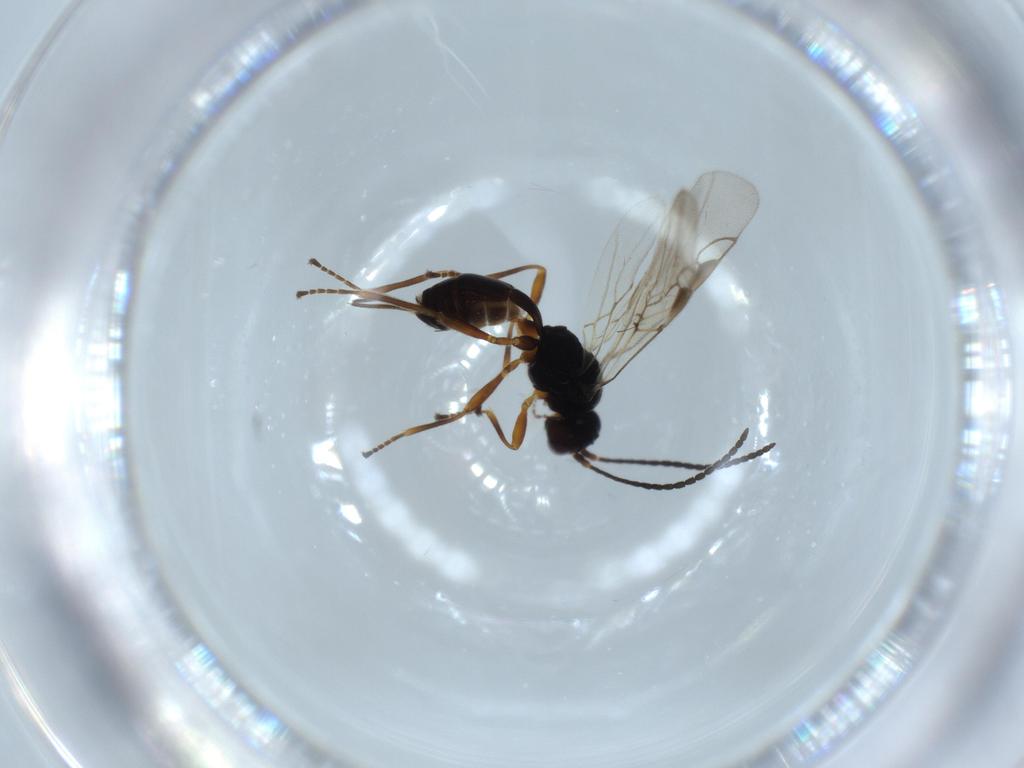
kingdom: Animalia
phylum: Arthropoda
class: Insecta
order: Hymenoptera
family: Braconidae
